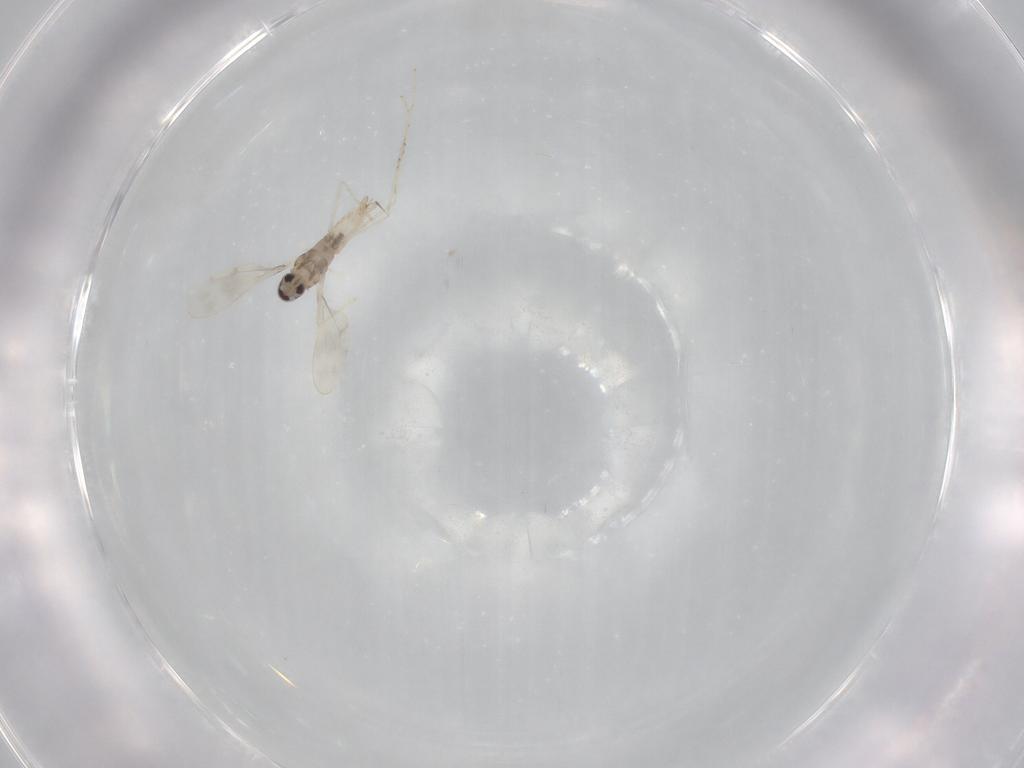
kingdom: Animalia
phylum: Arthropoda
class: Insecta
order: Diptera
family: Cecidomyiidae
